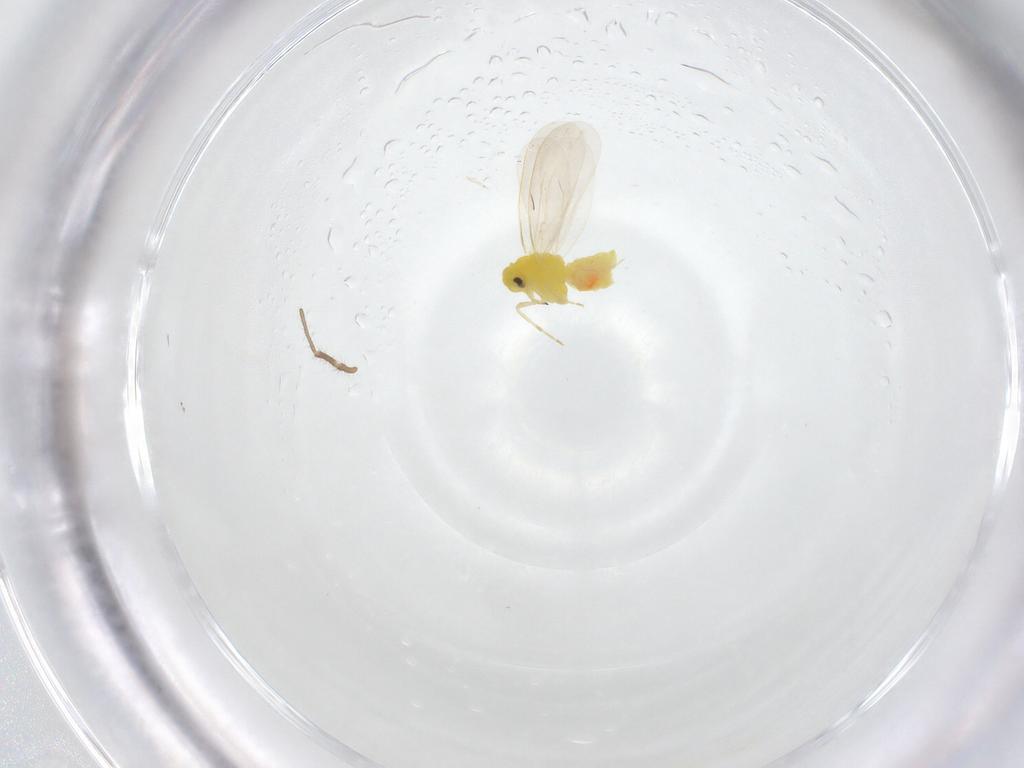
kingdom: Animalia
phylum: Arthropoda
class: Insecta
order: Hemiptera
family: Aleyrodidae
